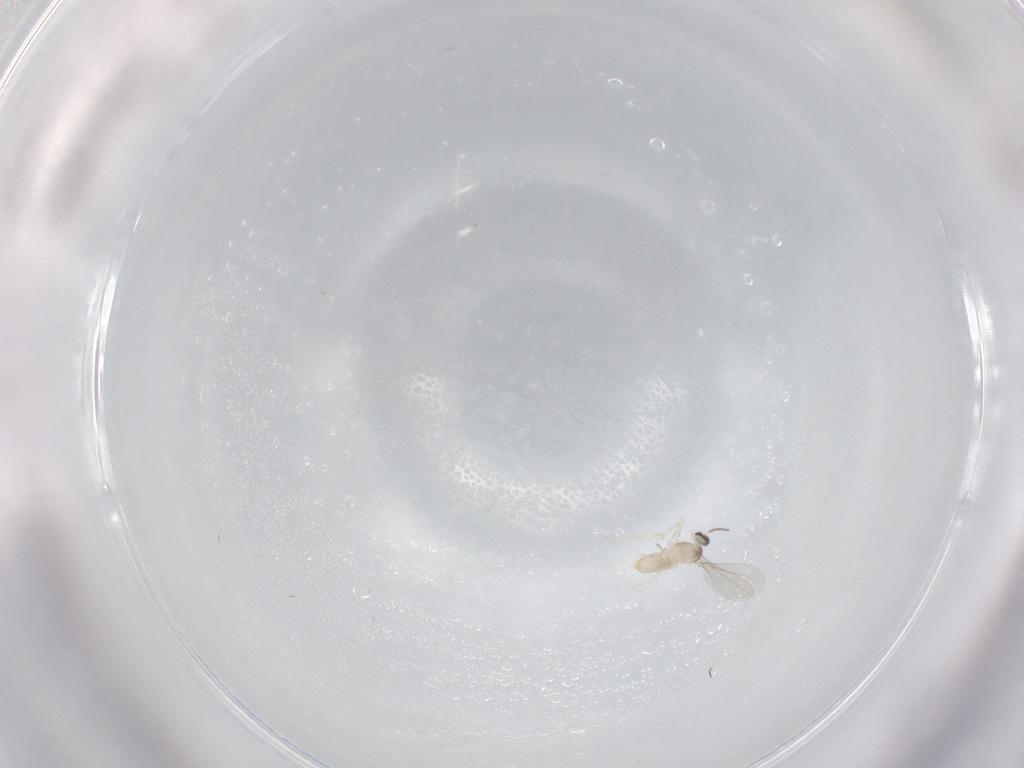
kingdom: Animalia
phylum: Arthropoda
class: Insecta
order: Diptera
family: Cecidomyiidae
